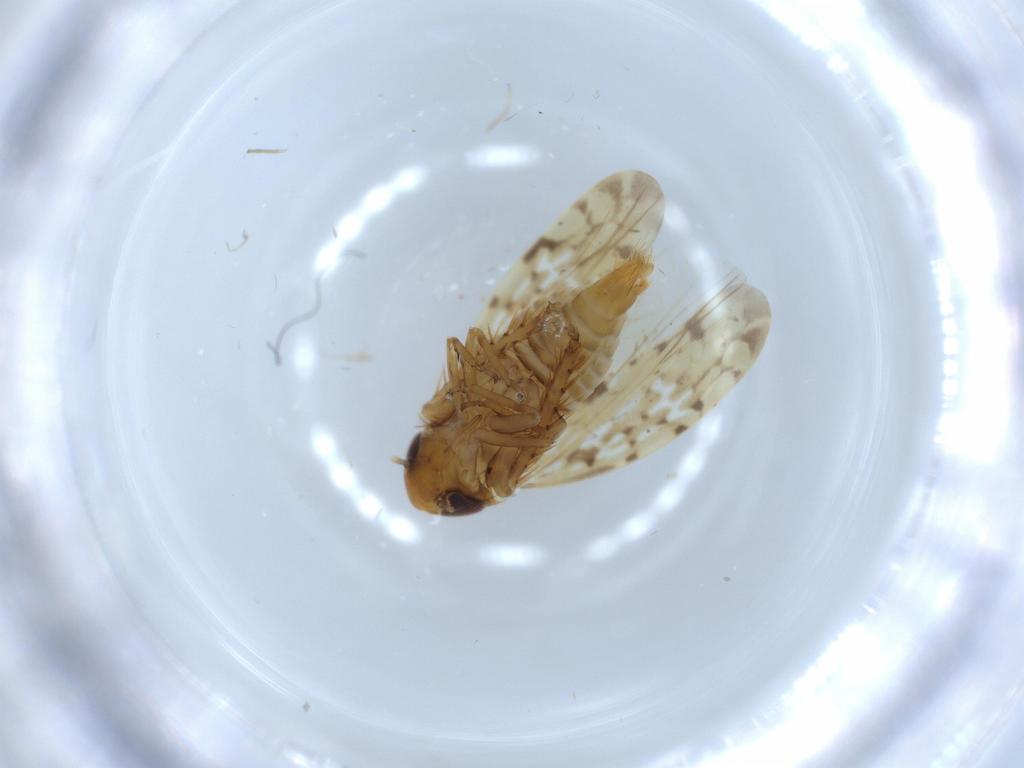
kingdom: Animalia
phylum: Arthropoda
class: Insecta
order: Hemiptera
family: Cicadellidae
